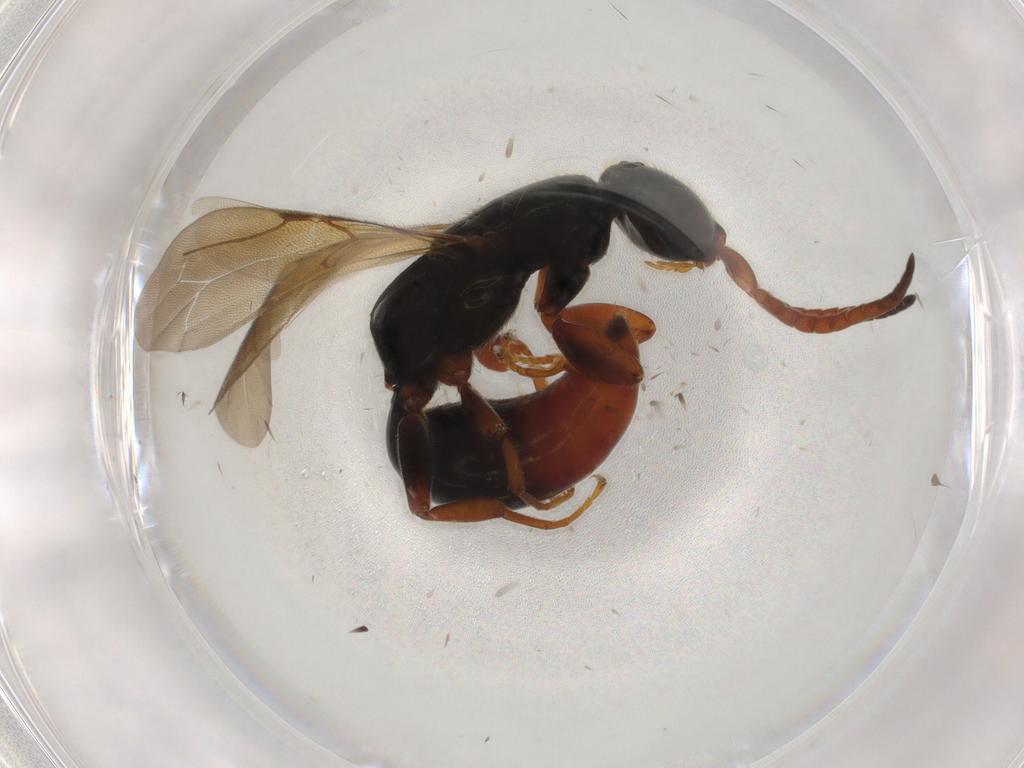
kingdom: Animalia
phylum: Arthropoda
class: Insecta
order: Hymenoptera
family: Bethylidae
